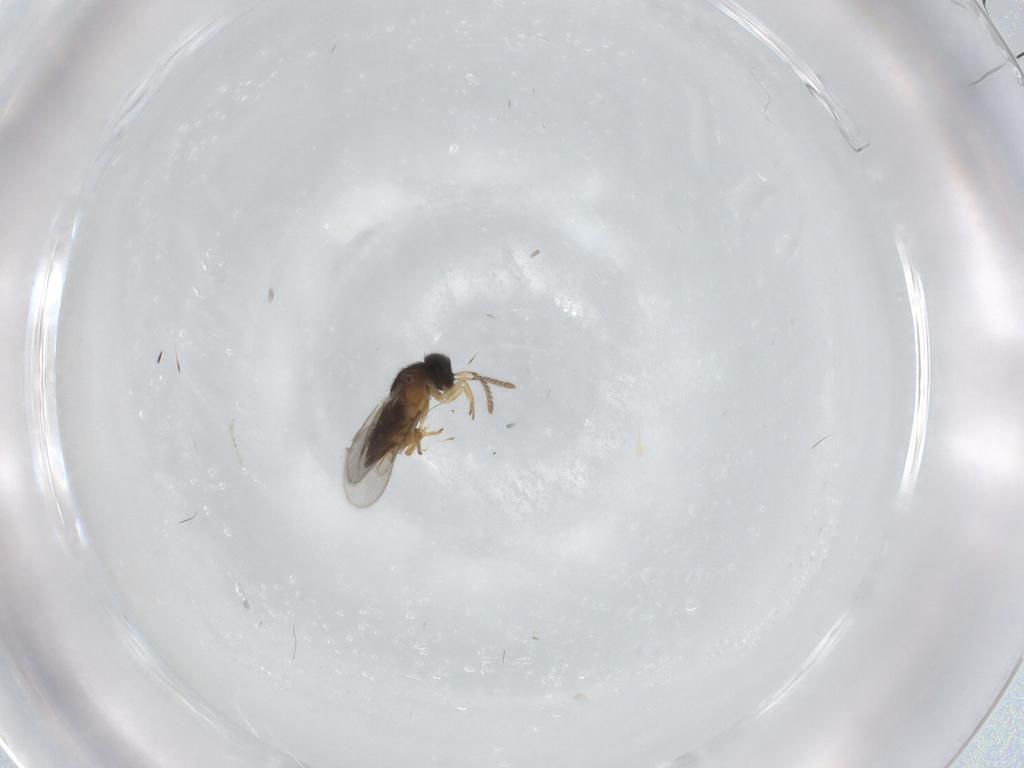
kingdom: Animalia
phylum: Arthropoda
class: Insecta
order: Hymenoptera
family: Encyrtidae
